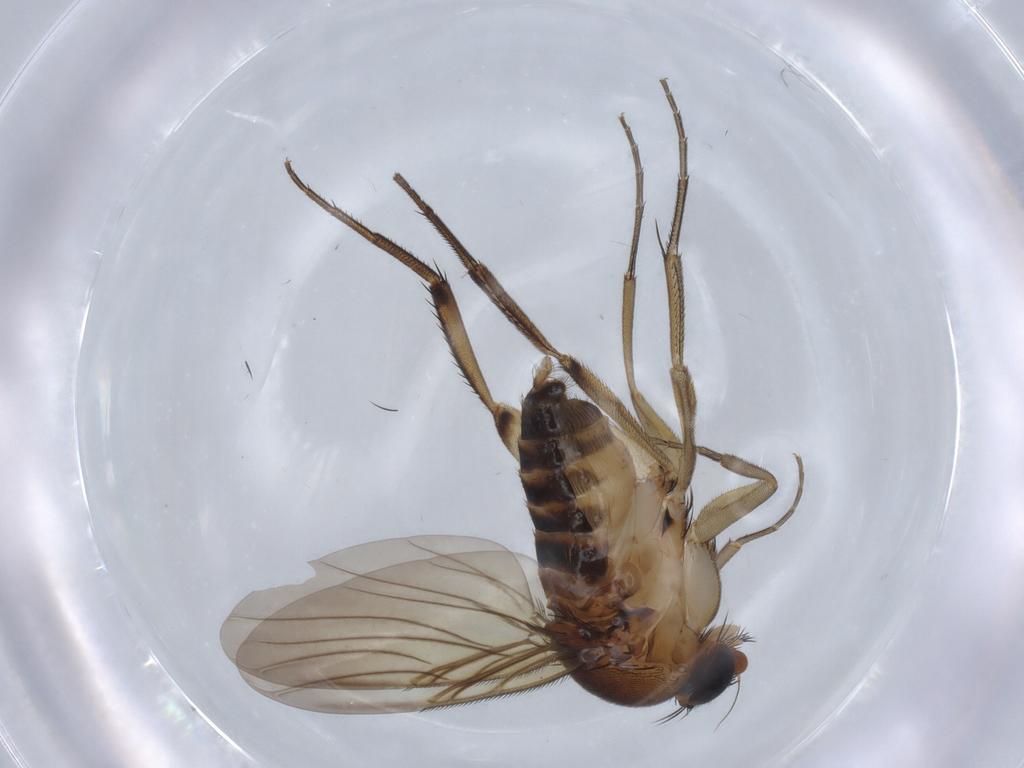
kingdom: Animalia
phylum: Arthropoda
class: Insecta
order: Diptera
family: Phoridae
